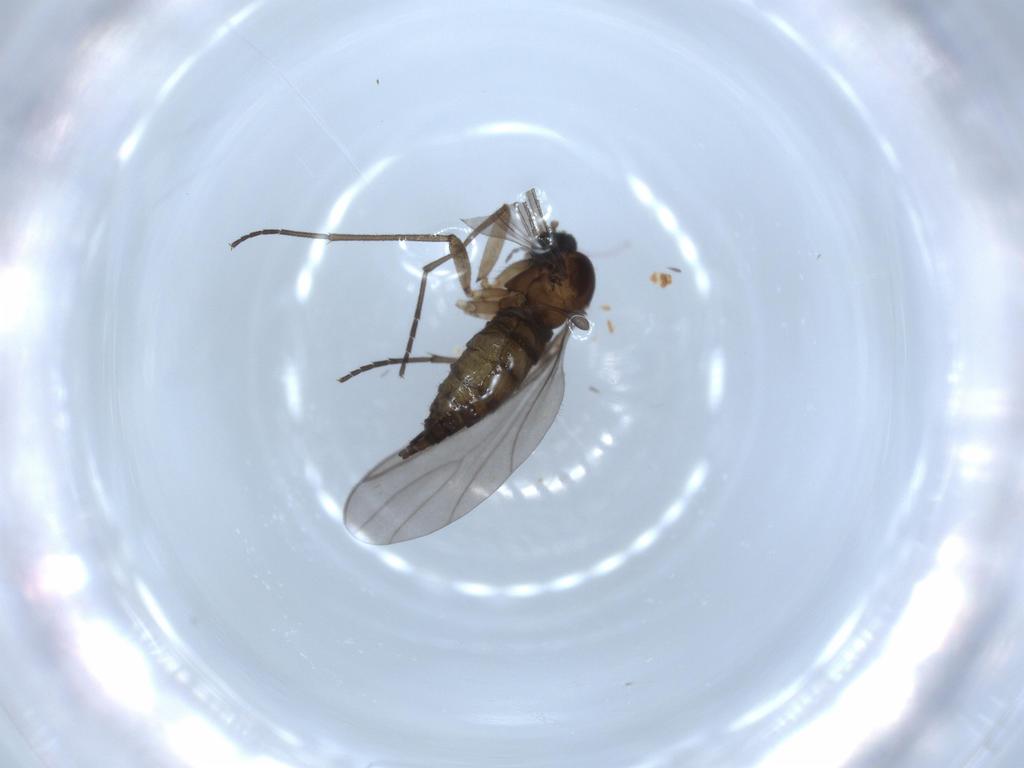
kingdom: Animalia
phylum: Arthropoda
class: Insecta
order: Diptera
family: Sciaridae
